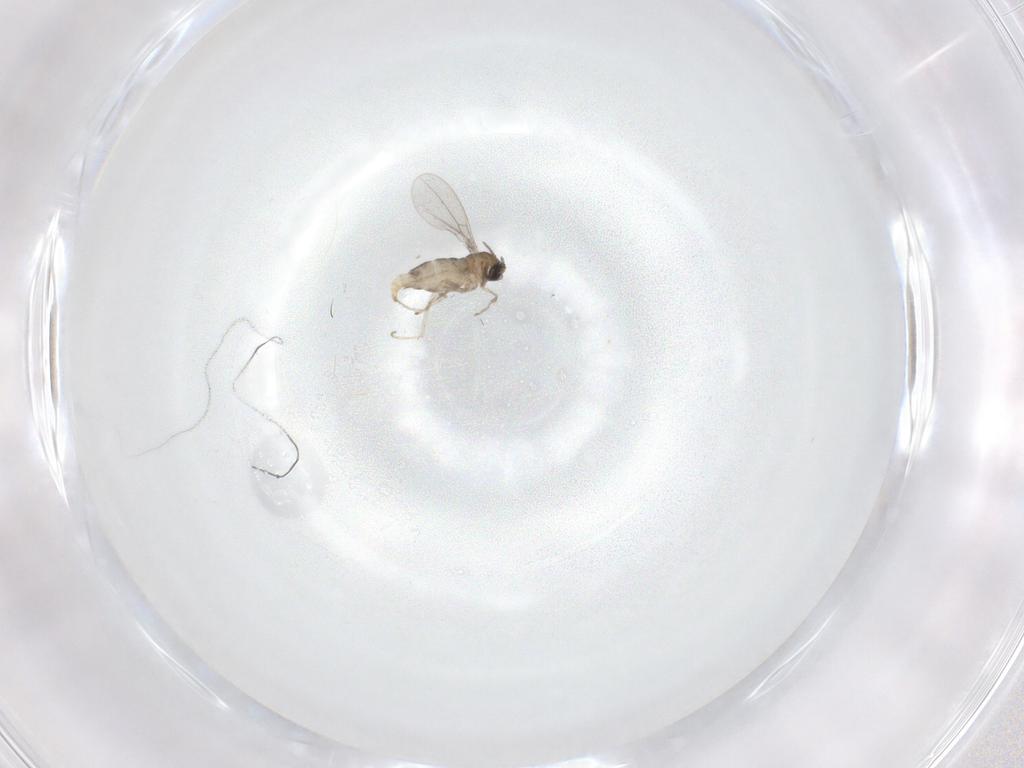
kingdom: Animalia
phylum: Arthropoda
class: Insecta
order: Diptera
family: Cecidomyiidae
